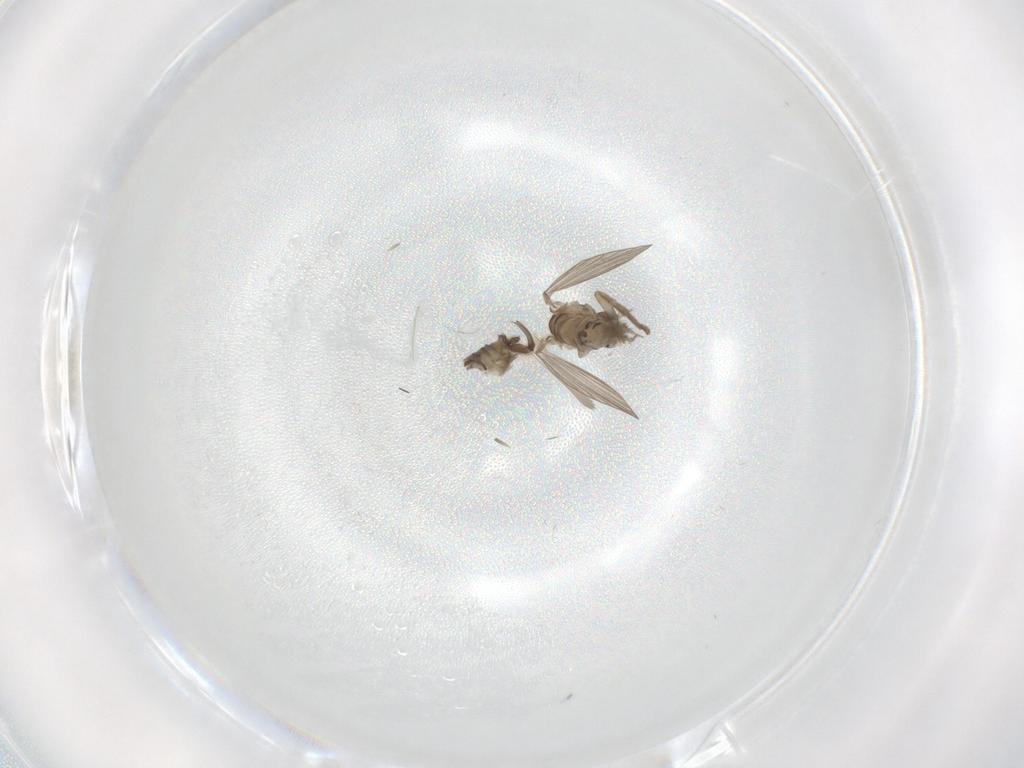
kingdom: Animalia
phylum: Arthropoda
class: Insecta
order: Diptera
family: Psychodidae
